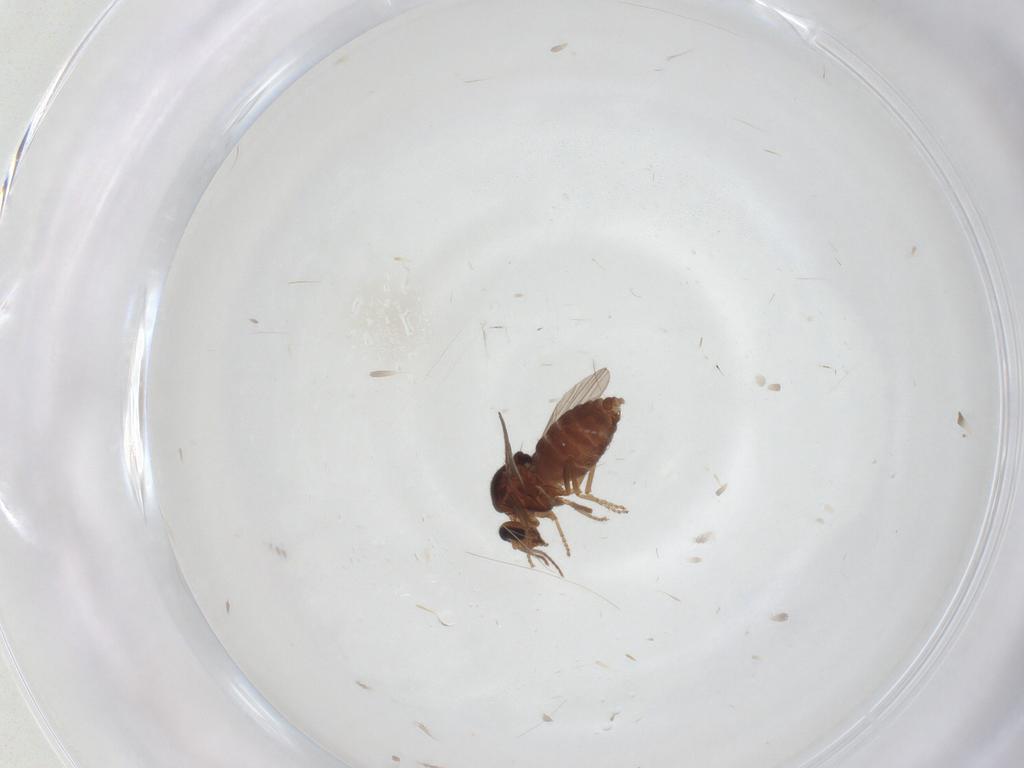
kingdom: Animalia
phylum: Arthropoda
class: Insecta
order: Diptera
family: Ceratopogonidae
